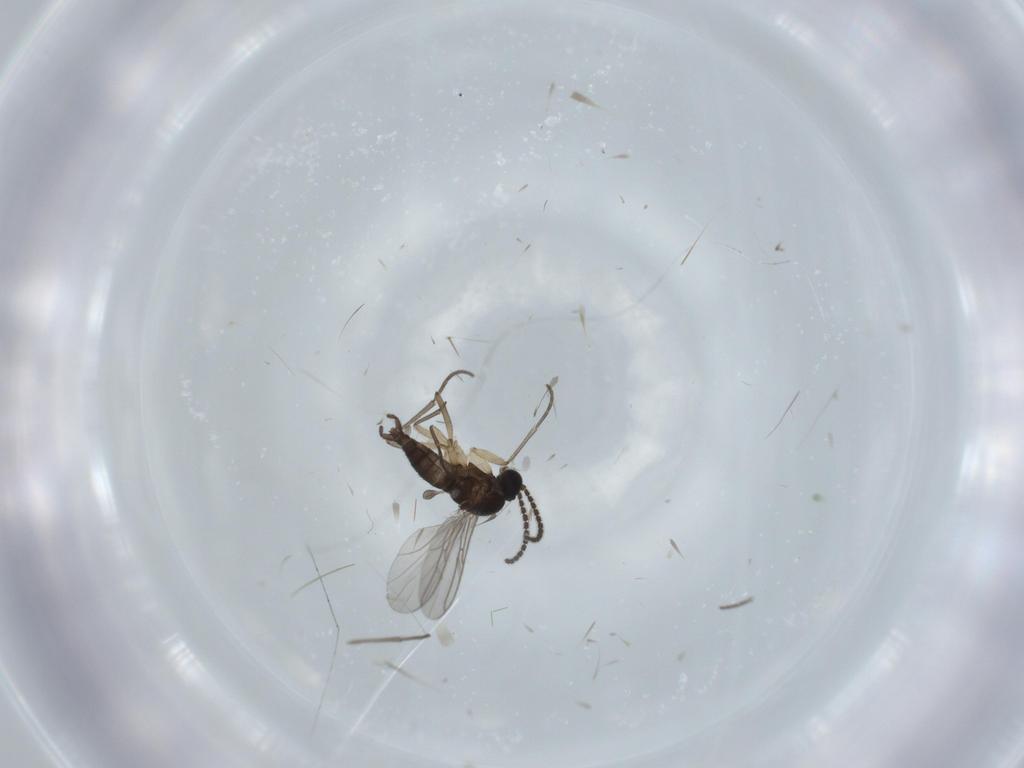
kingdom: Animalia
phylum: Arthropoda
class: Insecta
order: Diptera
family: Sciaridae
